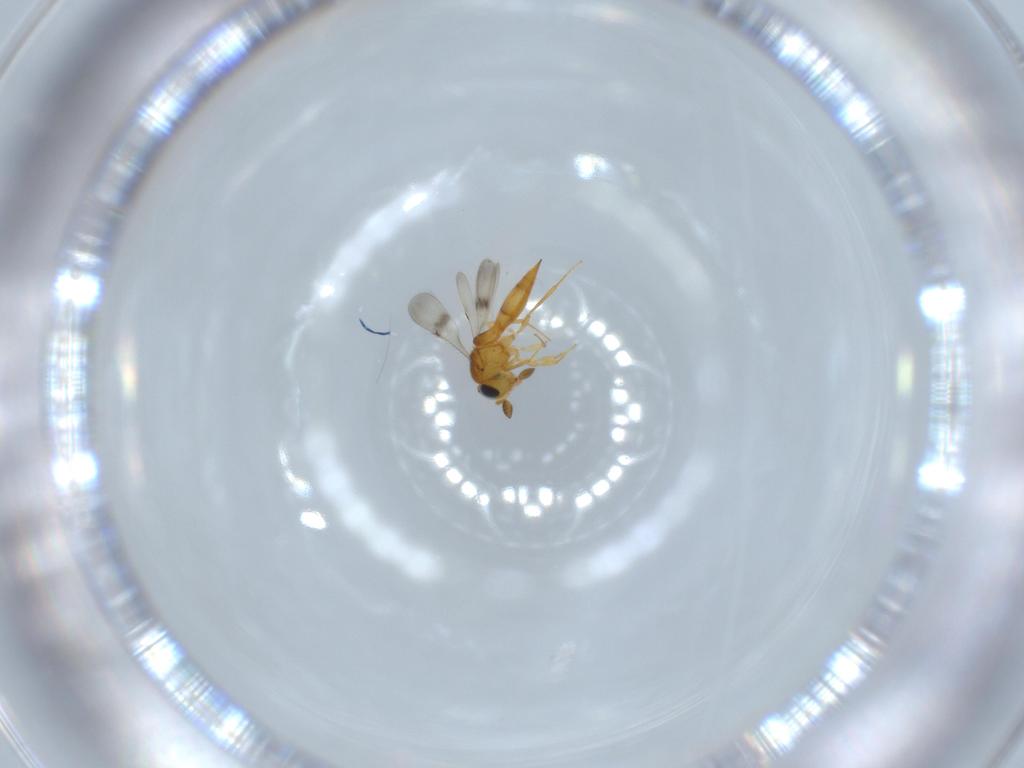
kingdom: Animalia
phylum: Arthropoda
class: Insecta
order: Hymenoptera
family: Scelionidae
